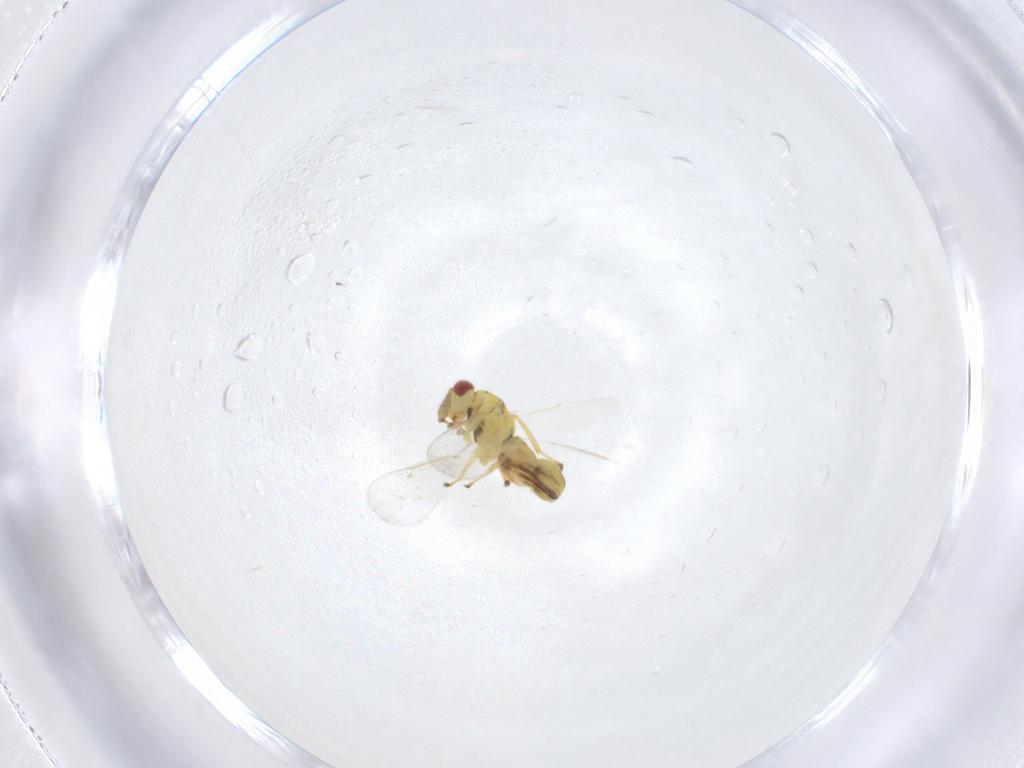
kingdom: Animalia
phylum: Arthropoda
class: Insecta
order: Hymenoptera
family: Eulophidae
